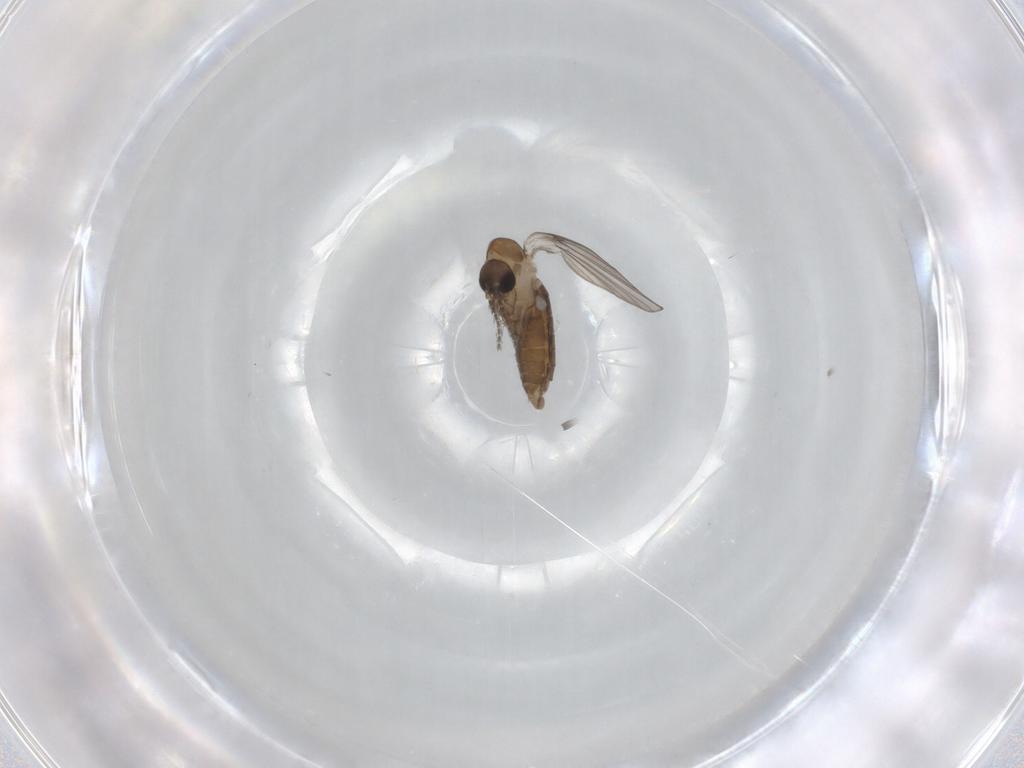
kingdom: Animalia
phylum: Arthropoda
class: Insecta
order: Diptera
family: Psychodidae
